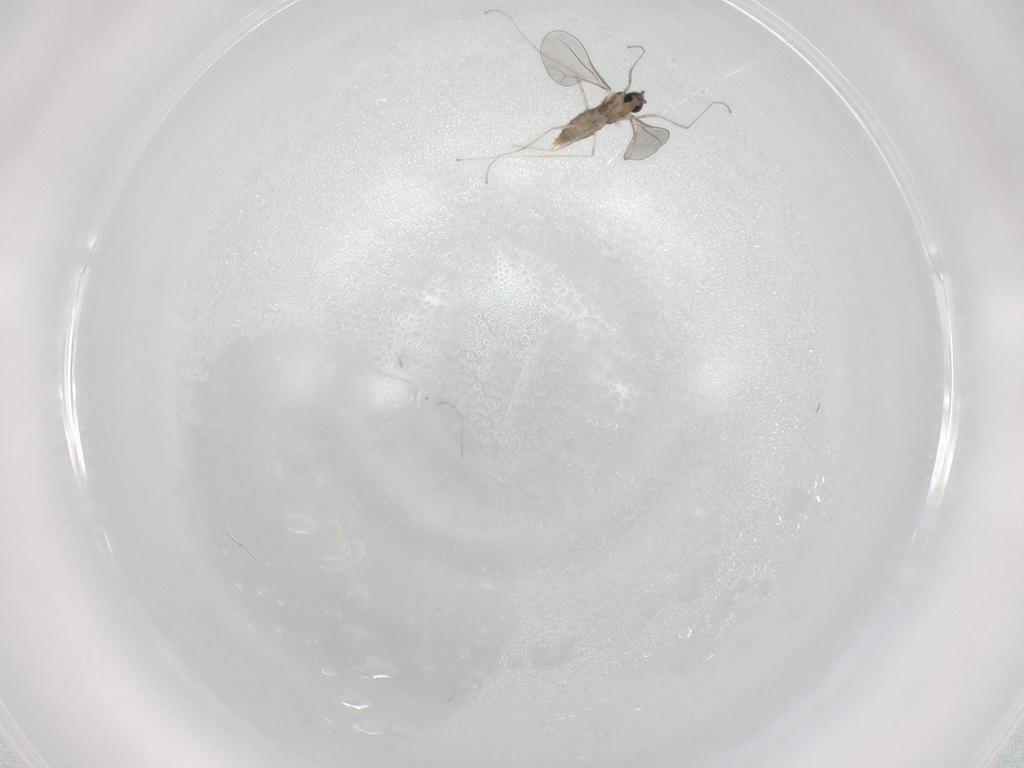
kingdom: Animalia
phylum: Arthropoda
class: Insecta
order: Diptera
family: Cecidomyiidae
